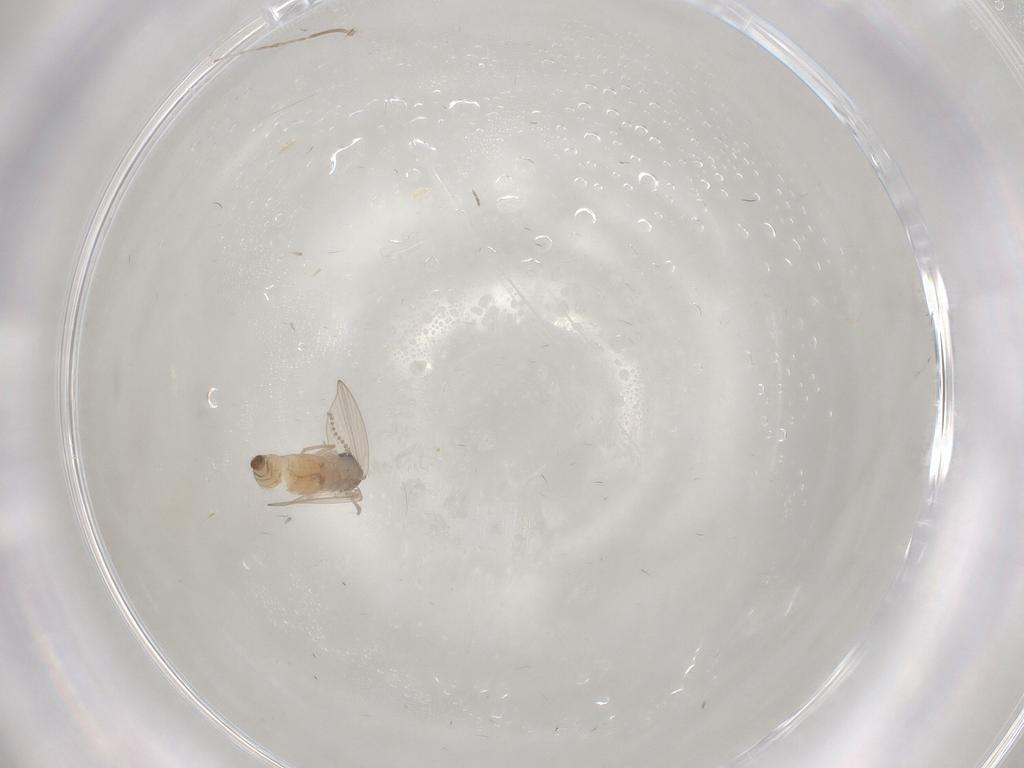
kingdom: Animalia
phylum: Arthropoda
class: Insecta
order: Diptera
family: Psychodidae
